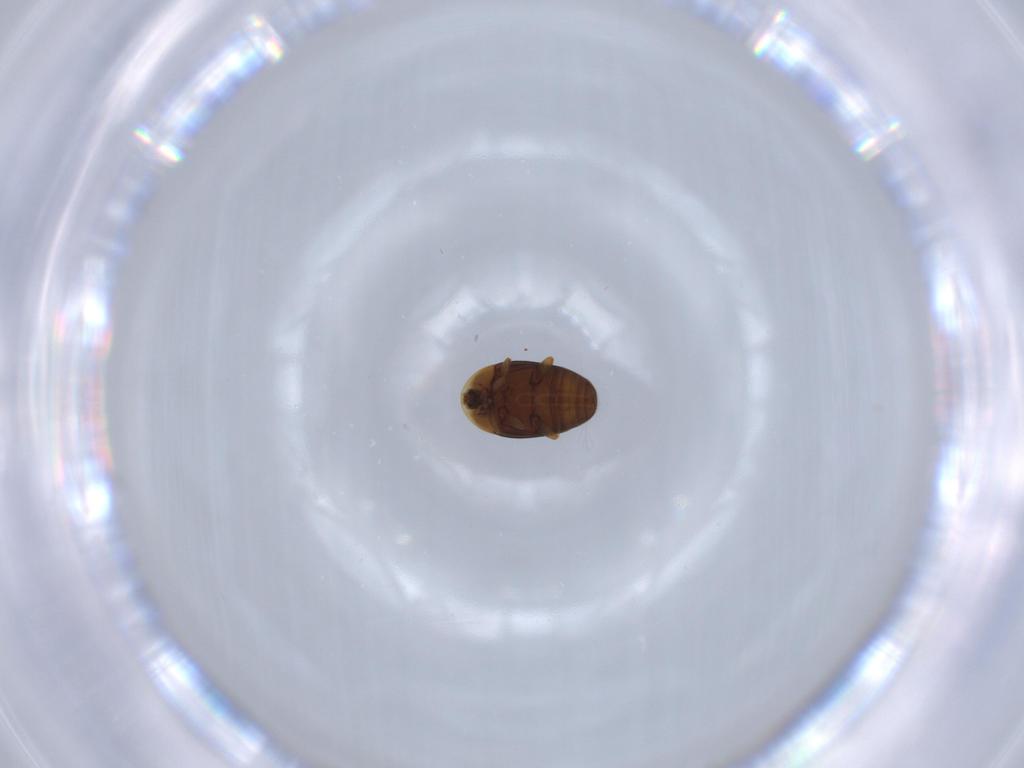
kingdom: Animalia
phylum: Arthropoda
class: Insecta
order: Coleoptera
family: Corylophidae
